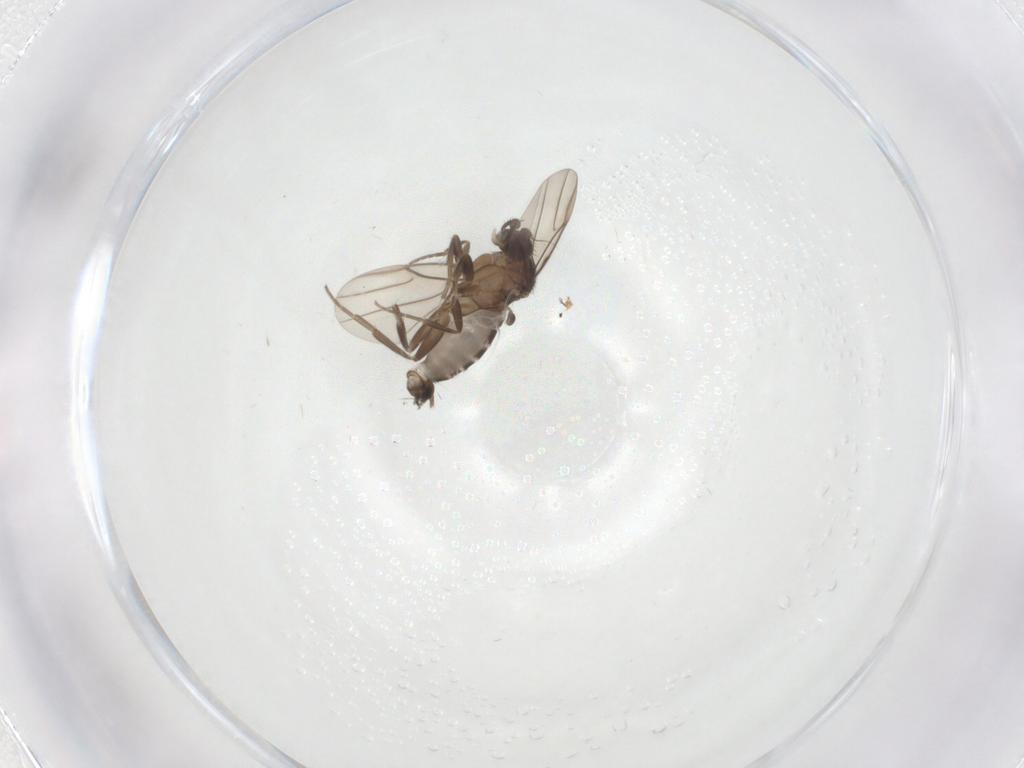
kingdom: Animalia
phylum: Arthropoda
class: Insecta
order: Diptera
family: Phoridae
